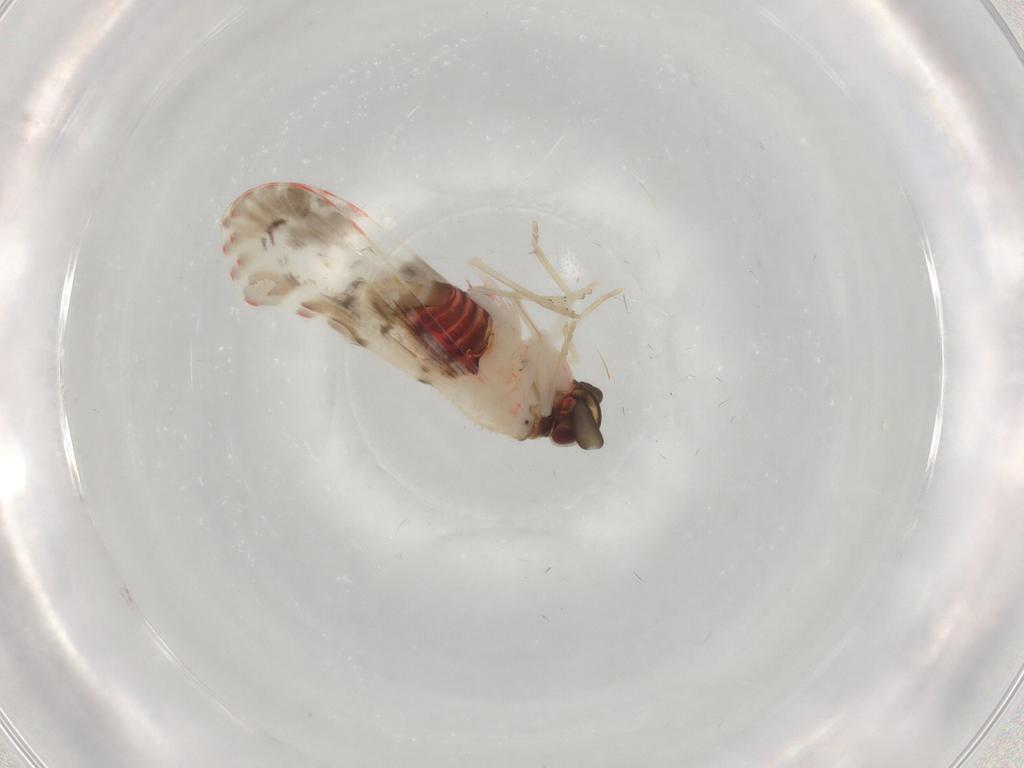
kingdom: Animalia
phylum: Arthropoda
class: Insecta
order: Hemiptera
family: Derbidae
